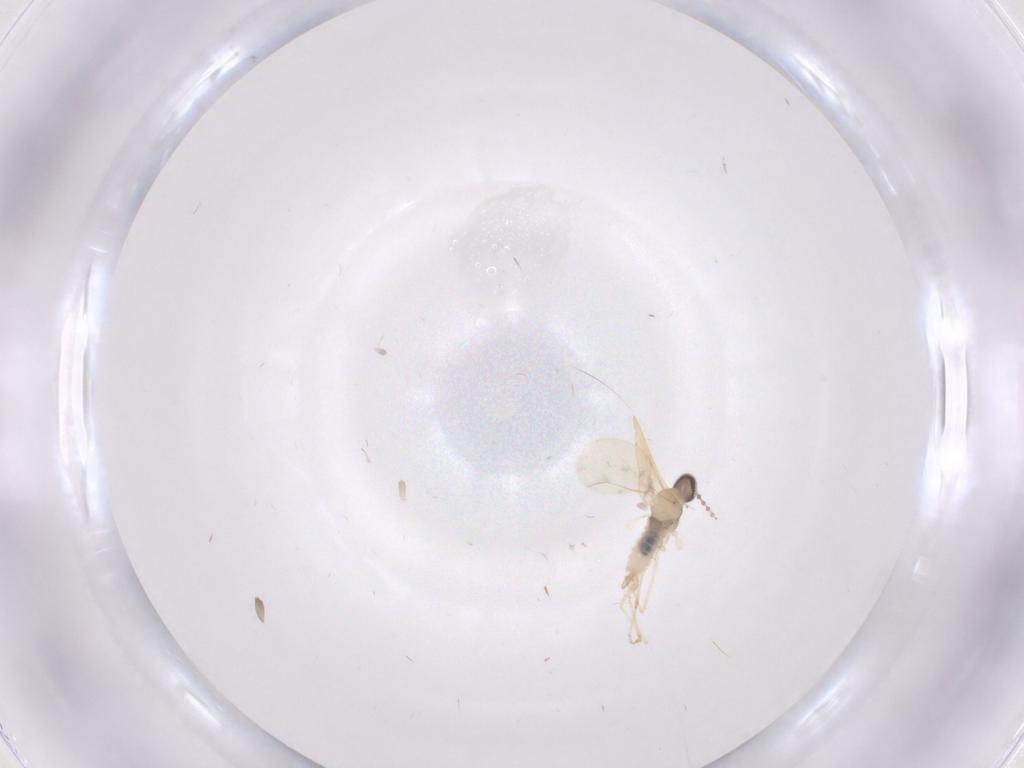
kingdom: Animalia
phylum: Arthropoda
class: Insecta
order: Diptera
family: Cecidomyiidae
